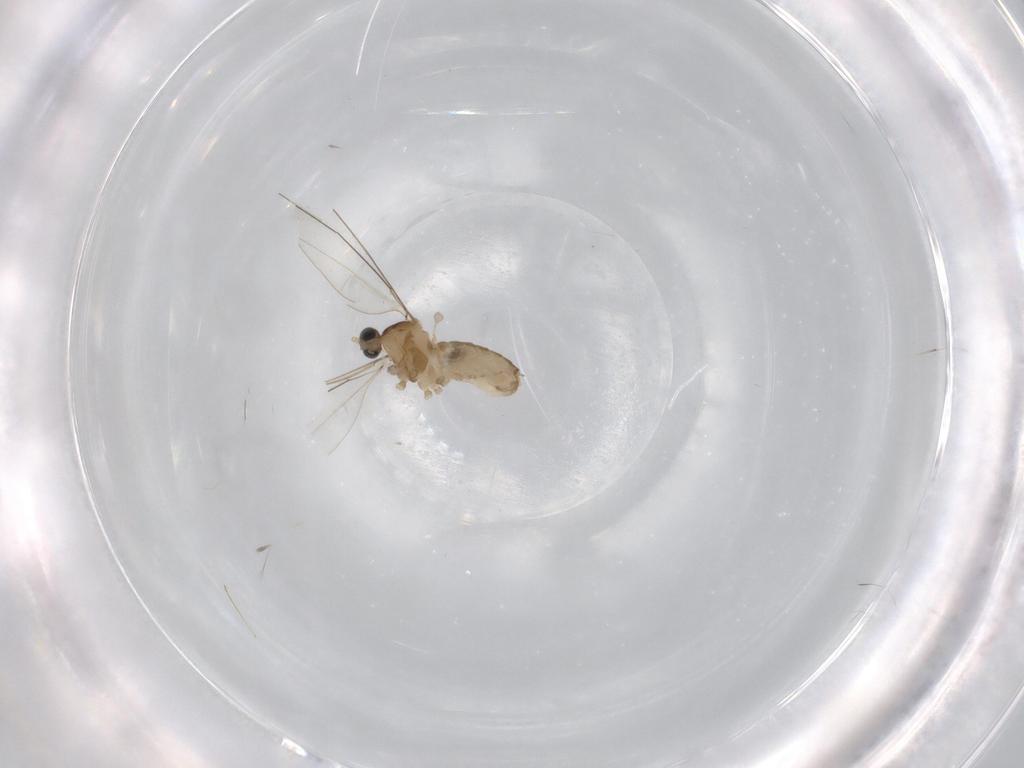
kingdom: Animalia
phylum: Arthropoda
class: Insecta
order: Diptera
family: Cecidomyiidae
